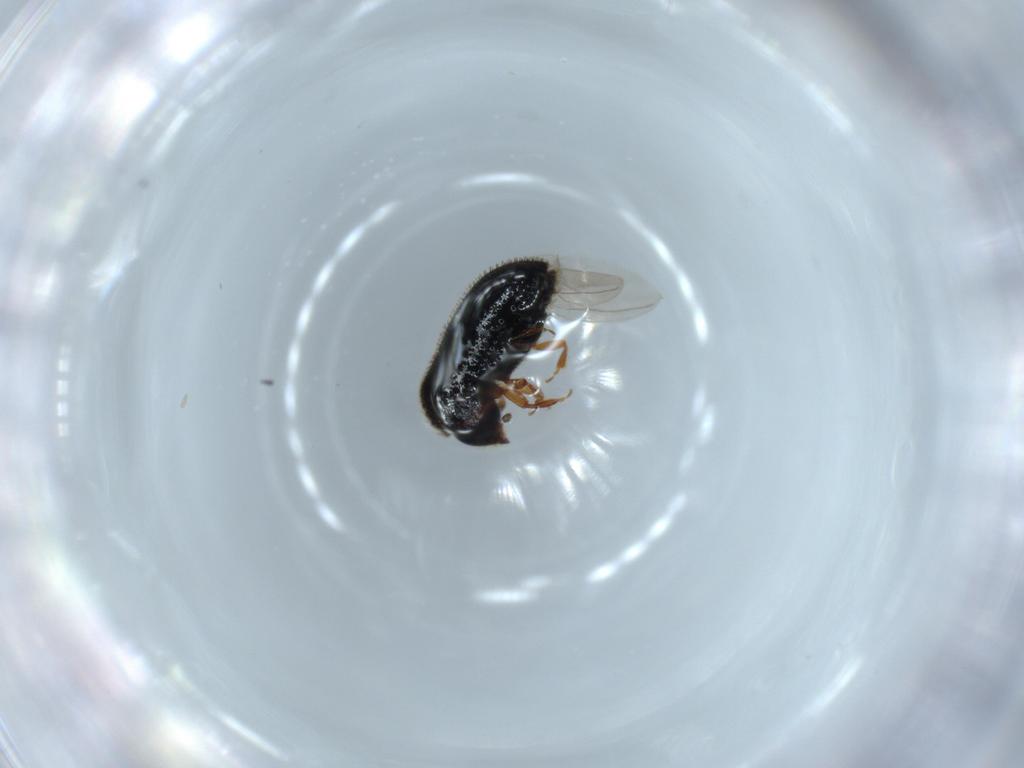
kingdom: Animalia
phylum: Arthropoda
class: Insecta
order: Coleoptera
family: Curculionidae
